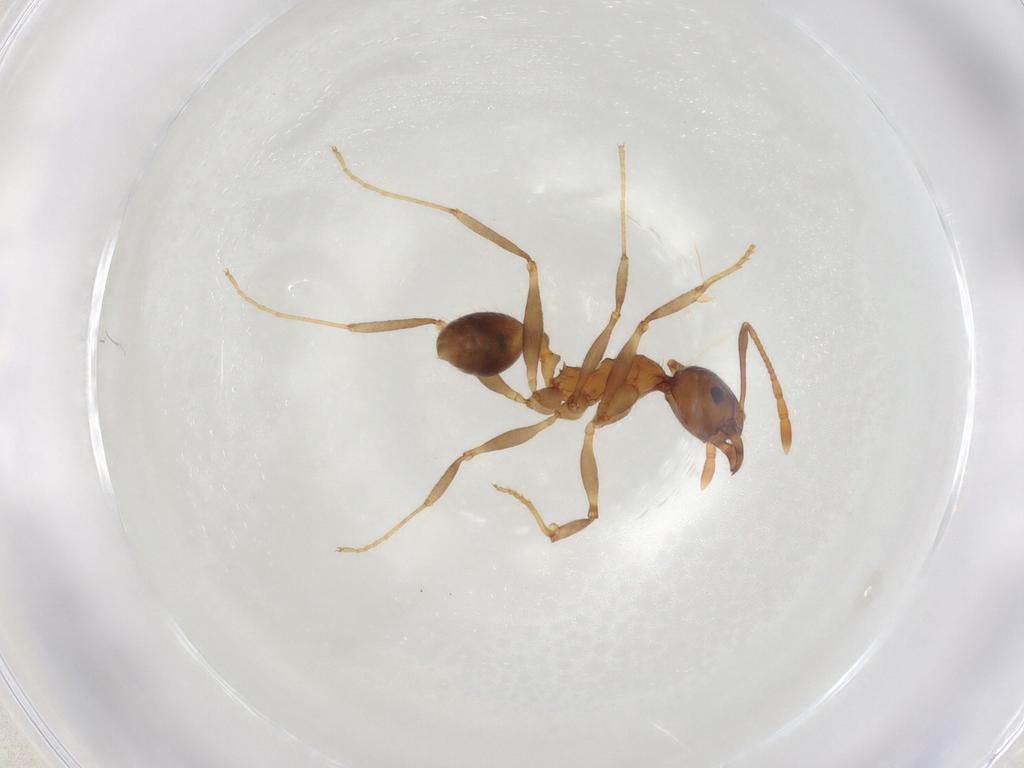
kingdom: Animalia
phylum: Arthropoda
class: Insecta
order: Hymenoptera
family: Formicidae
